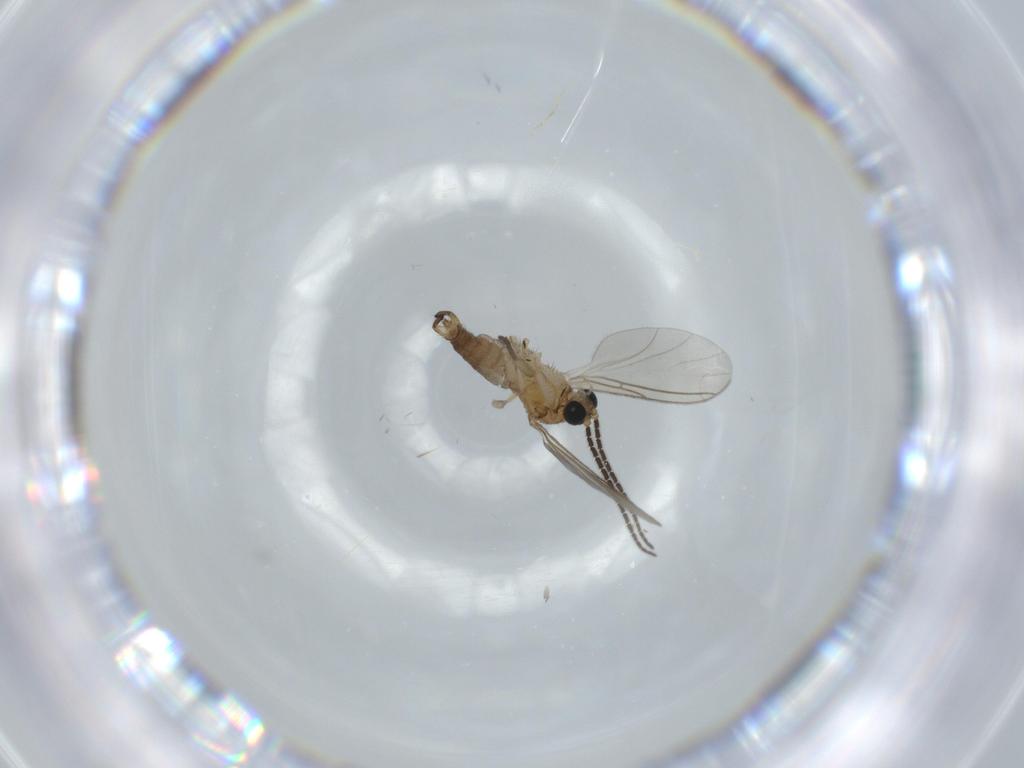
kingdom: Animalia
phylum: Arthropoda
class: Insecta
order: Diptera
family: Sciaridae
